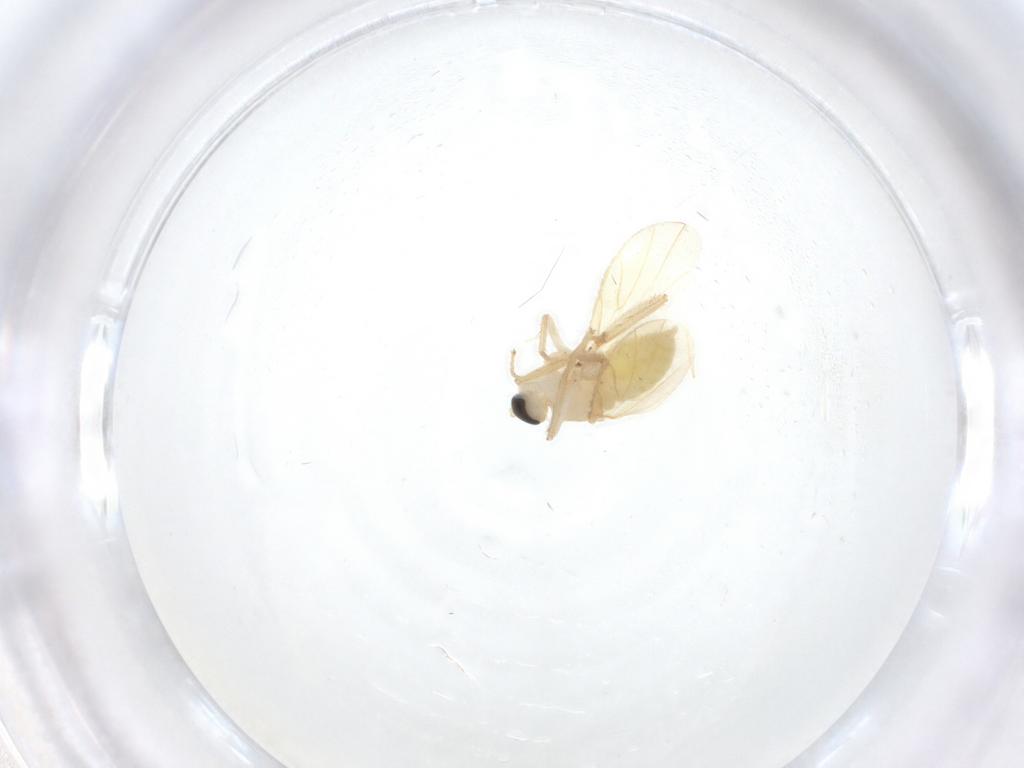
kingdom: Animalia
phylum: Arthropoda
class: Insecta
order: Diptera
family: Hybotidae
